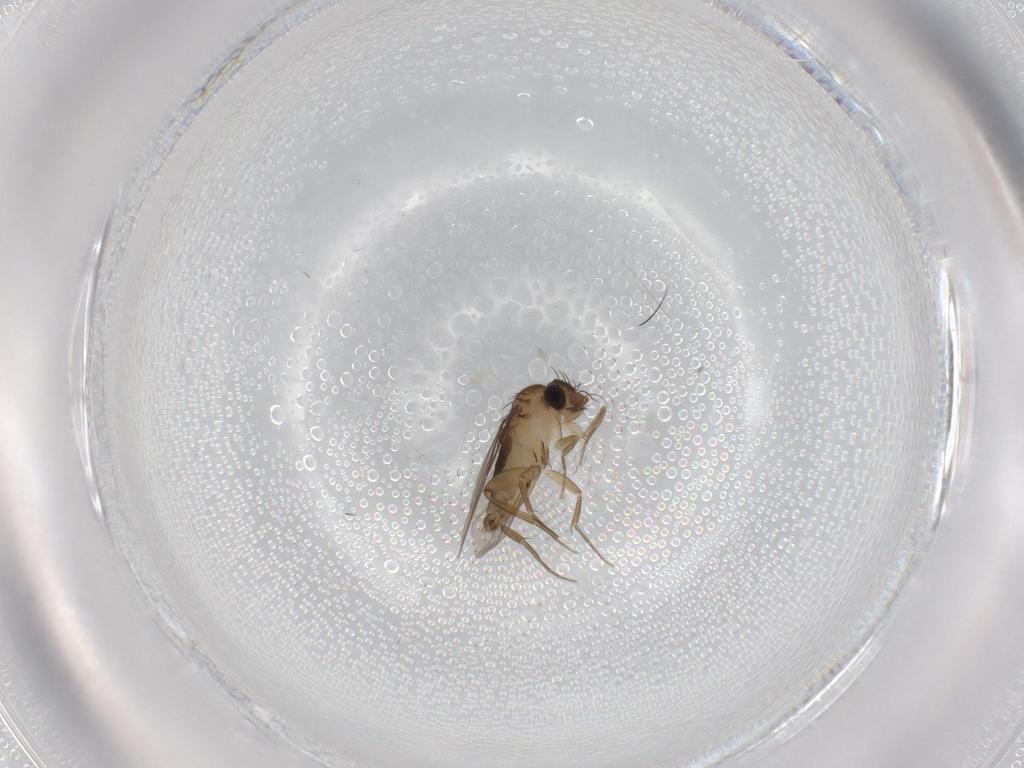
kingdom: Animalia
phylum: Arthropoda
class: Insecta
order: Diptera
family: Phoridae
